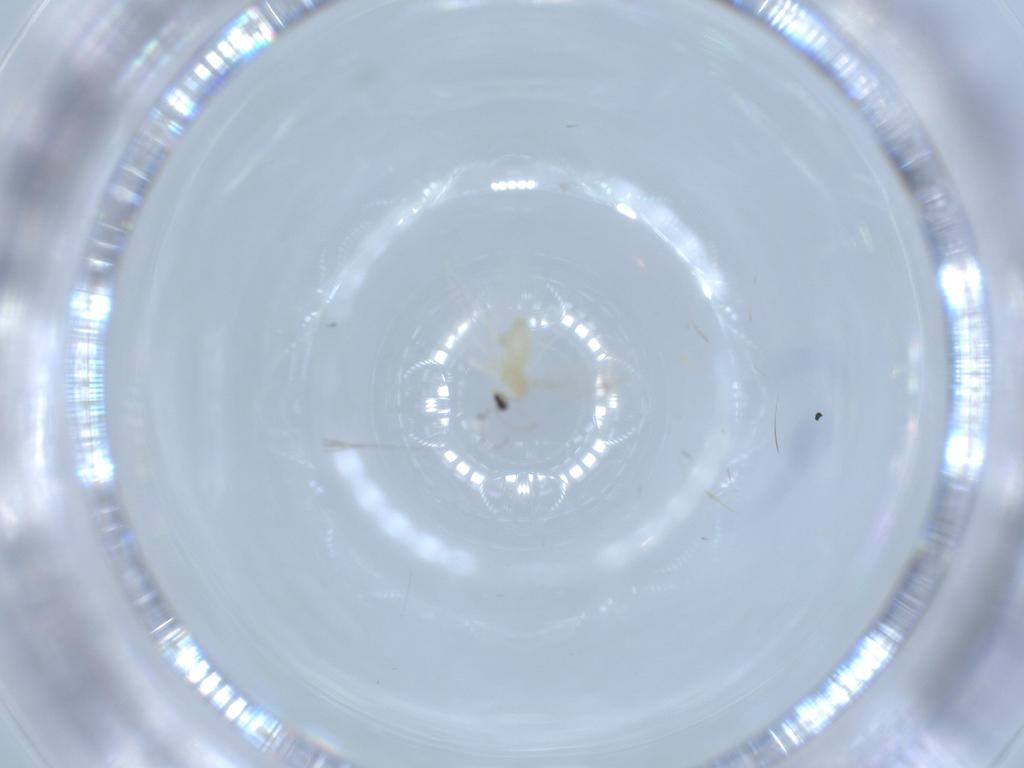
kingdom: Animalia
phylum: Arthropoda
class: Insecta
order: Diptera
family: Cecidomyiidae
